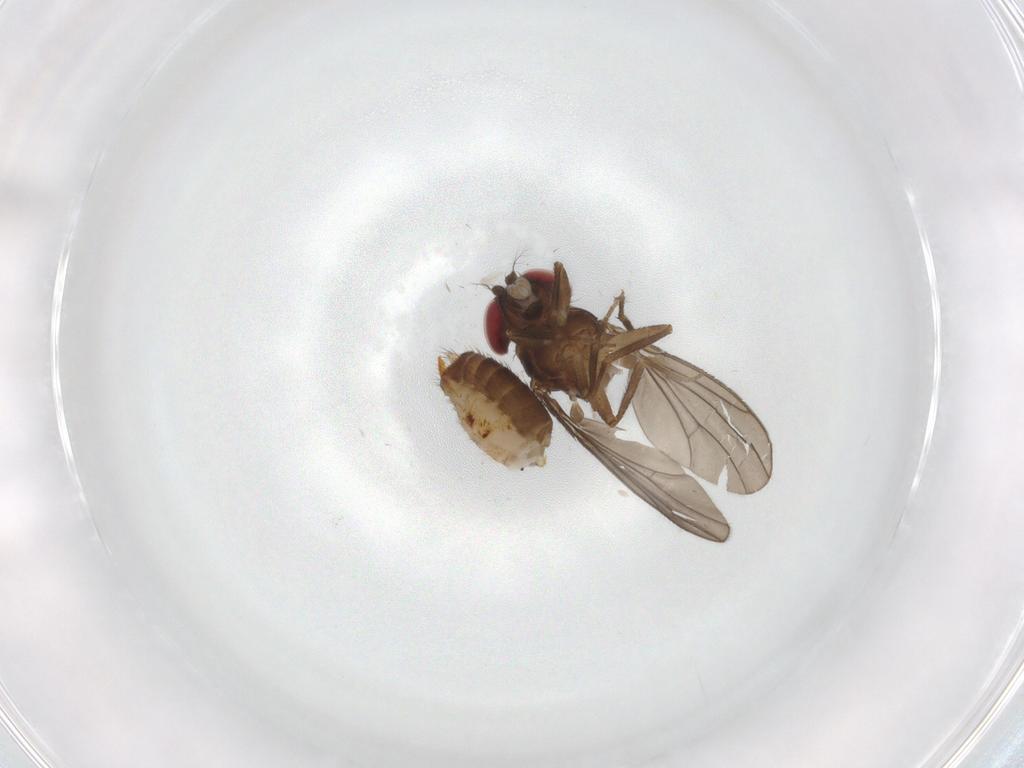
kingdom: Animalia
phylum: Arthropoda
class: Insecta
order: Diptera
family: Drosophilidae
